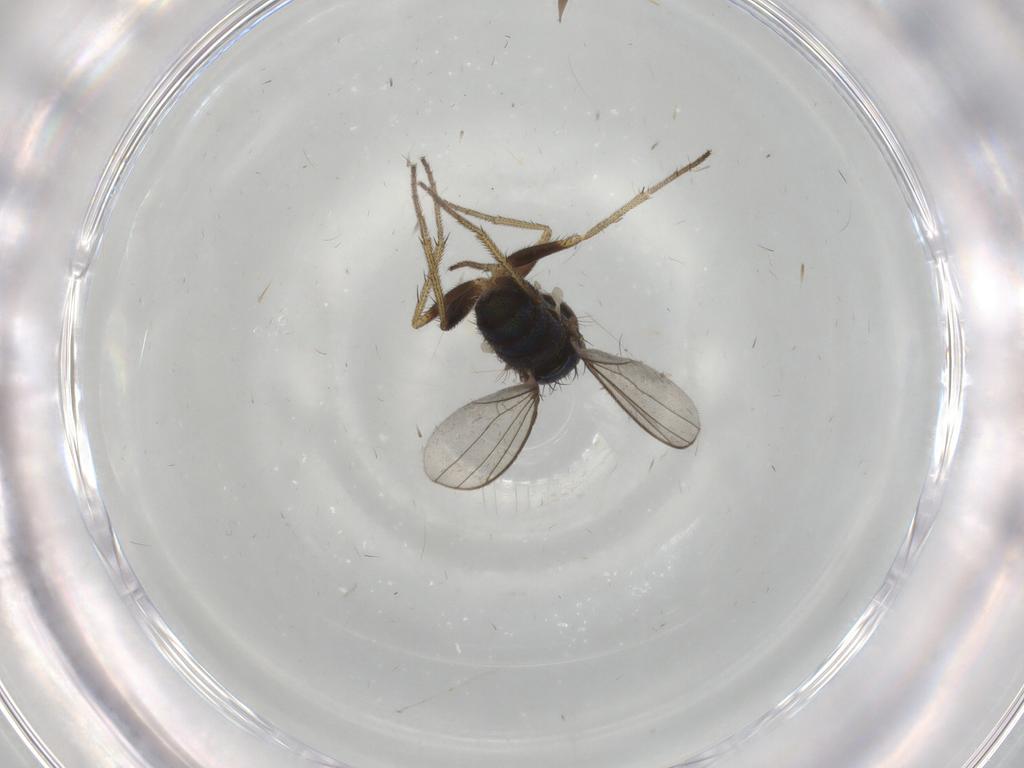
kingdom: Animalia
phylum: Arthropoda
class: Insecta
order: Diptera
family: Dolichopodidae
